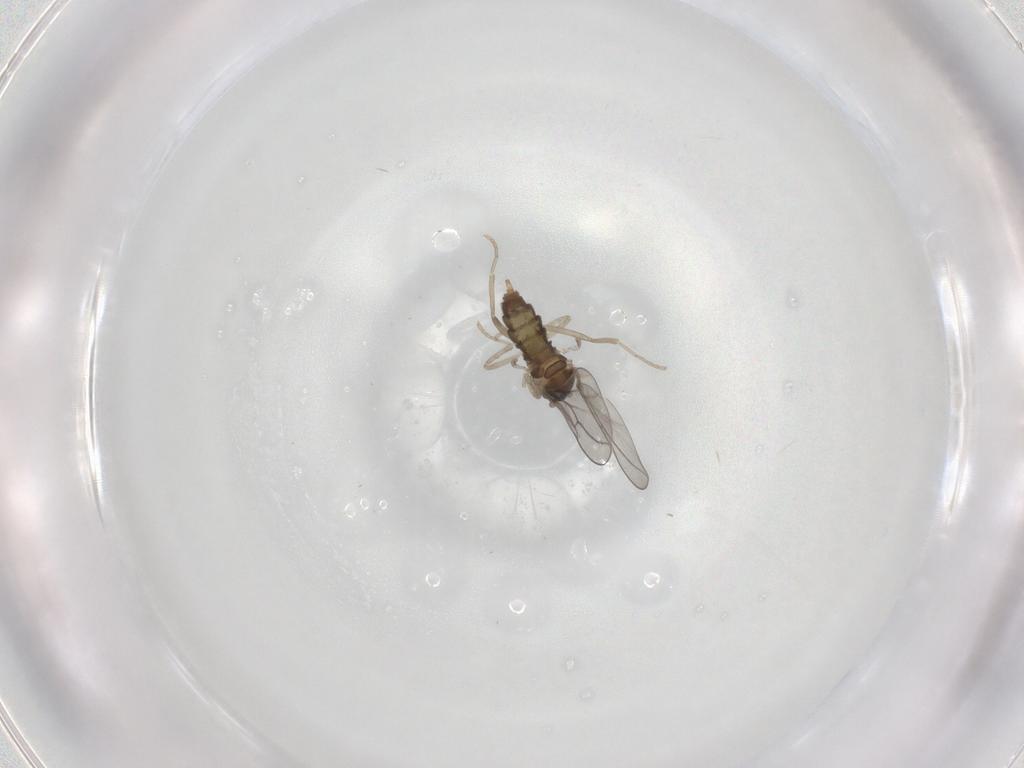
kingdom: Animalia
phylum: Arthropoda
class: Insecta
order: Diptera
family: Cecidomyiidae
